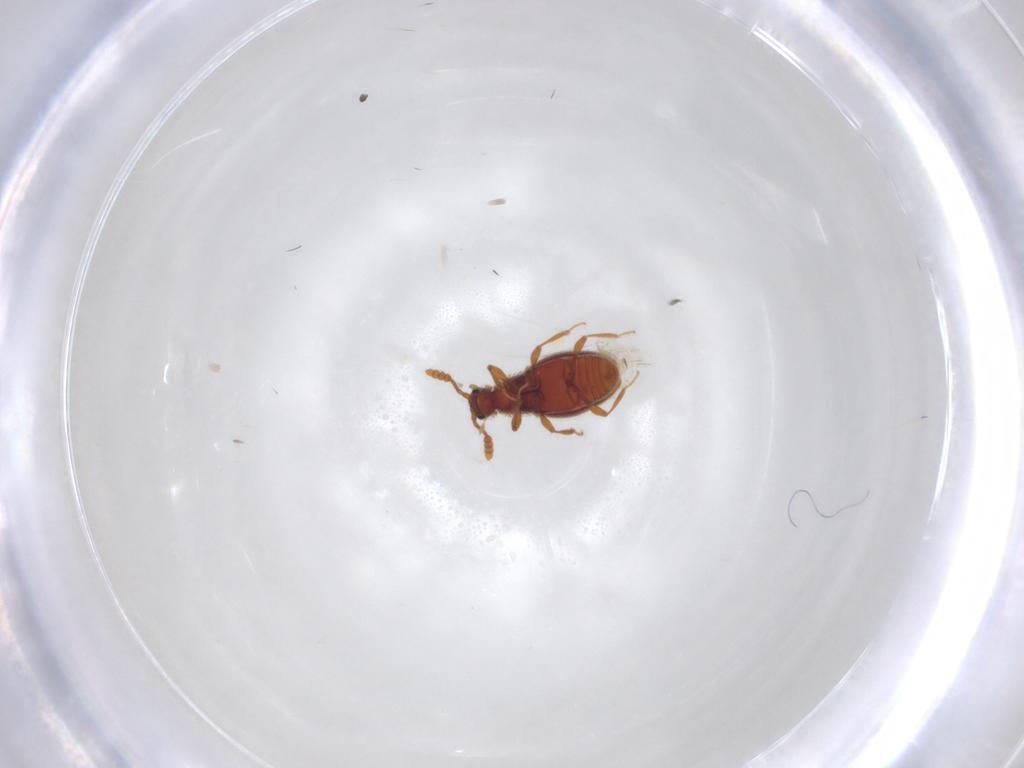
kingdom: Animalia
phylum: Arthropoda
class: Insecta
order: Coleoptera
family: Staphylinidae
